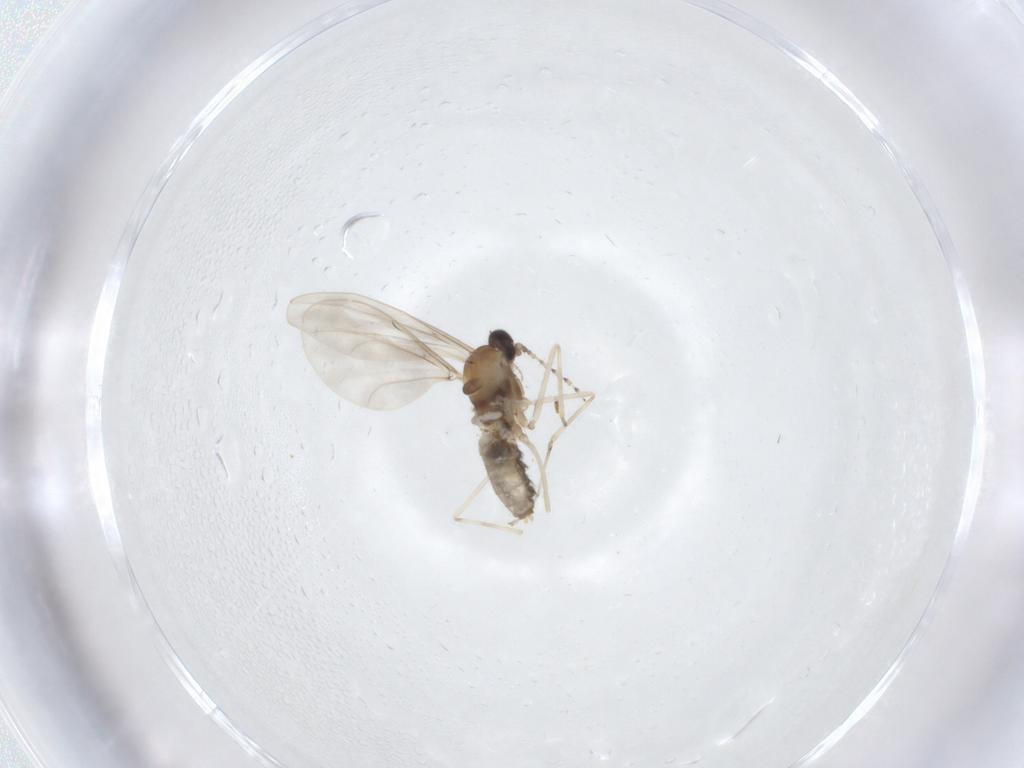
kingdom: Animalia
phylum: Arthropoda
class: Insecta
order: Diptera
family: Cecidomyiidae
